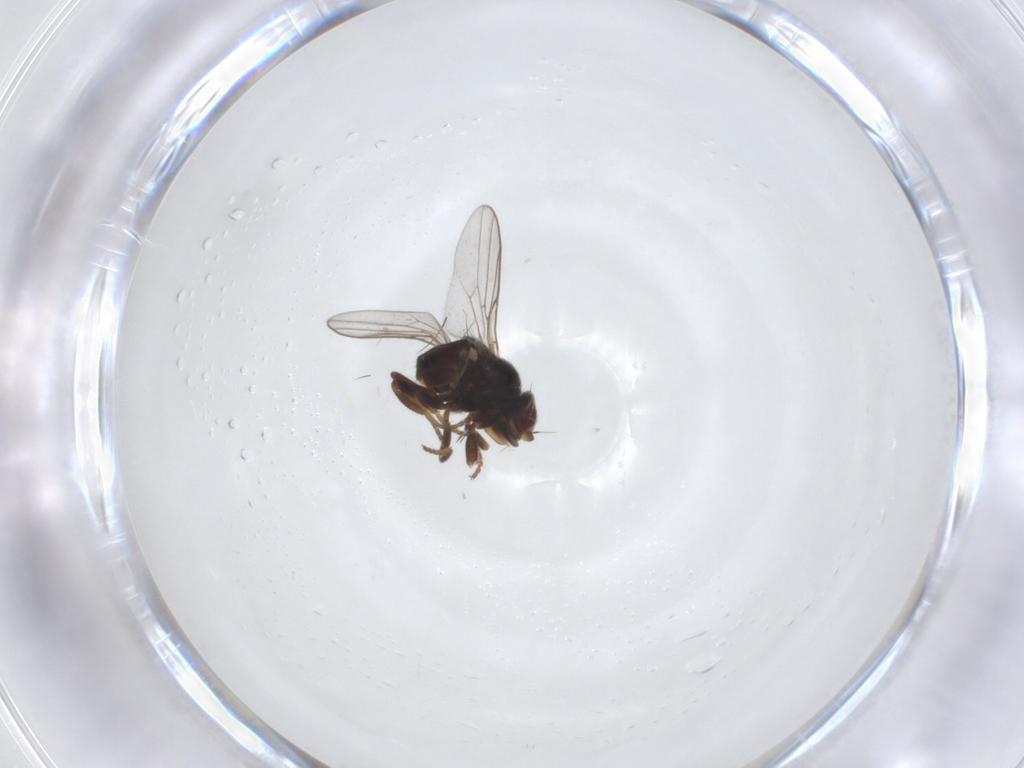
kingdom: Animalia
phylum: Arthropoda
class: Insecta
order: Diptera
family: Chloropidae
